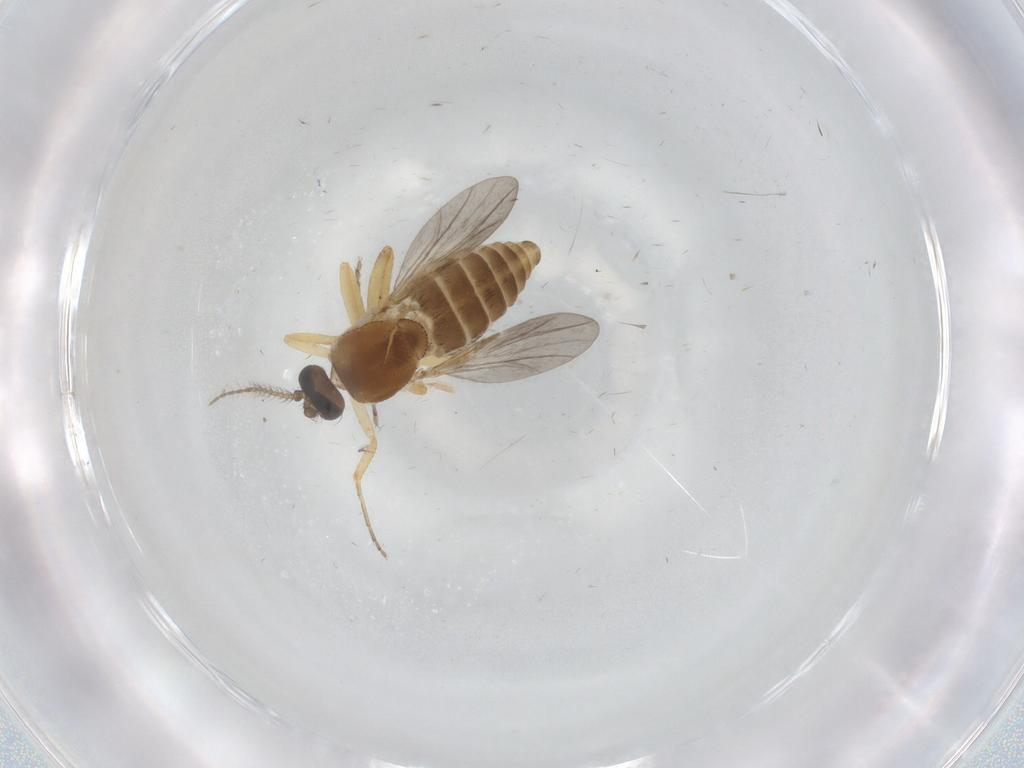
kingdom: Animalia
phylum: Arthropoda
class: Insecta
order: Diptera
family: Ceratopogonidae
